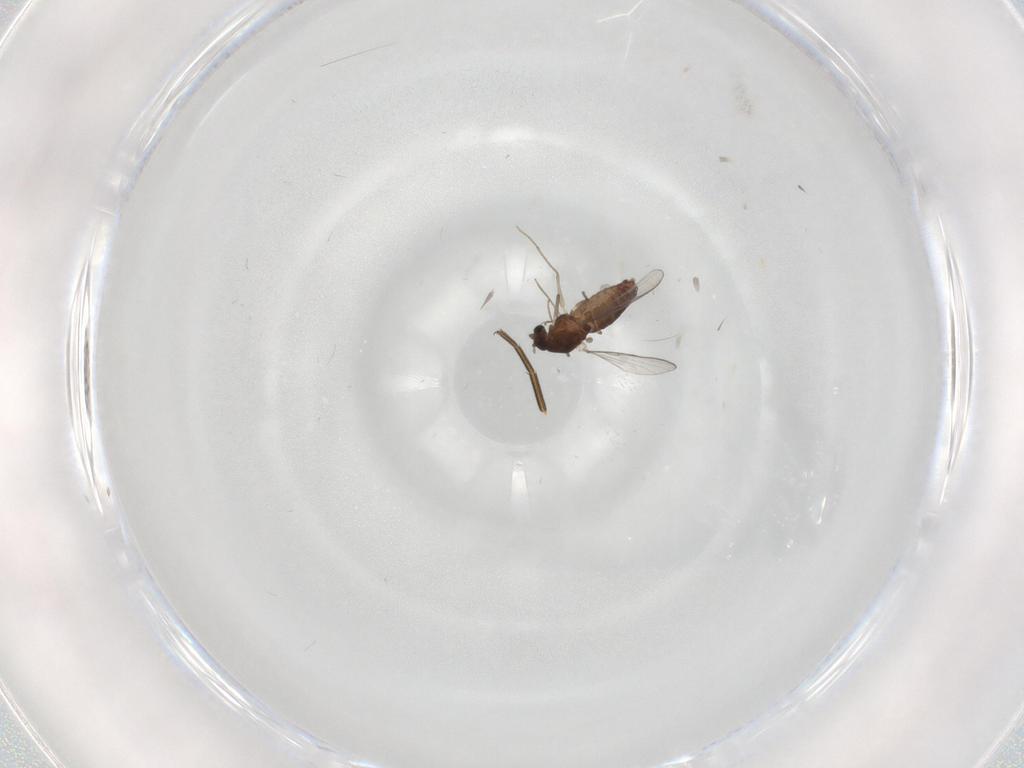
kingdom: Animalia
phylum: Arthropoda
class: Insecta
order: Diptera
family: Chironomidae
